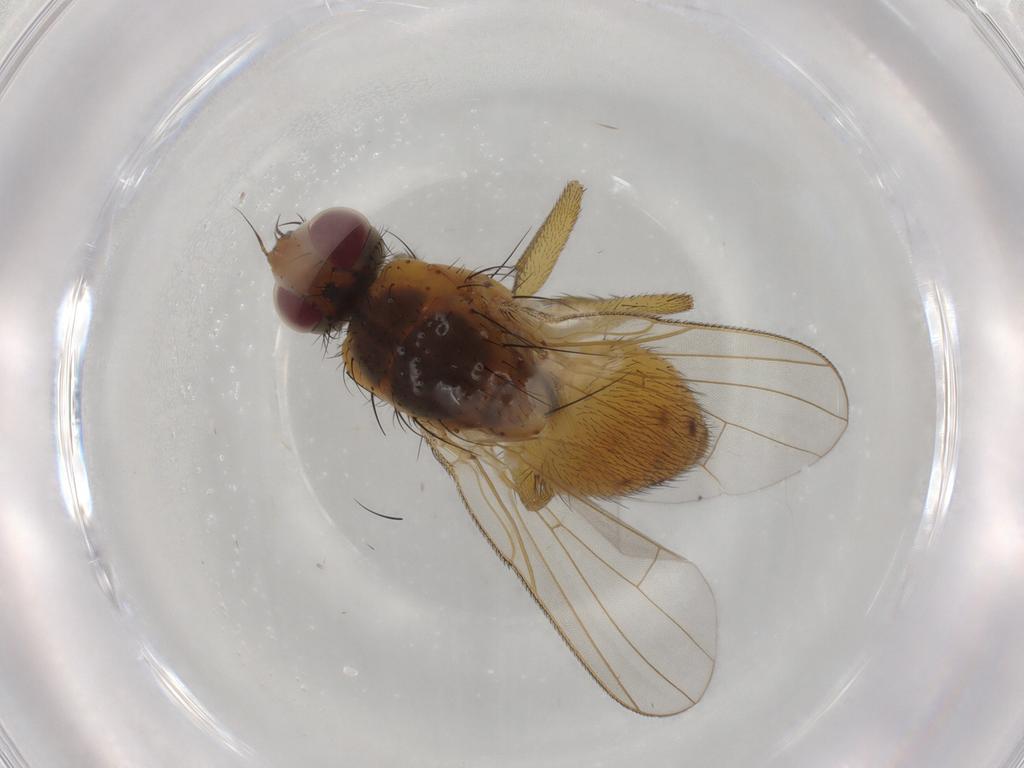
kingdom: Animalia
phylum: Arthropoda
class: Insecta
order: Diptera
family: Muscidae
